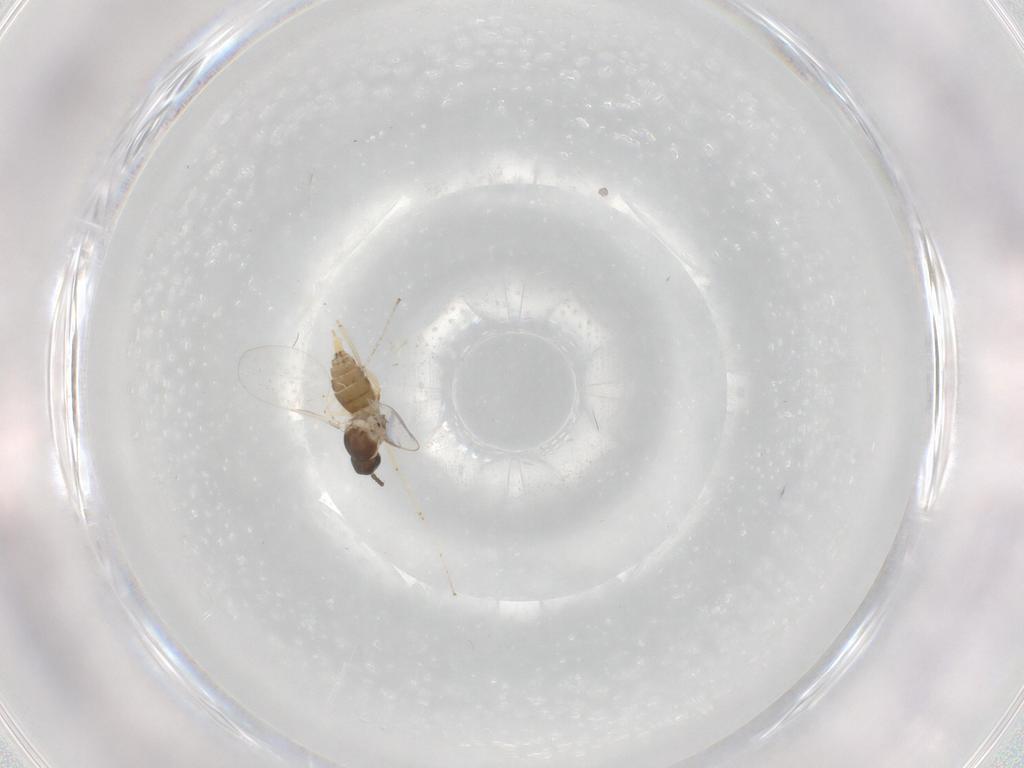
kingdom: Animalia
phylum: Arthropoda
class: Insecta
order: Diptera
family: Cecidomyiidae
